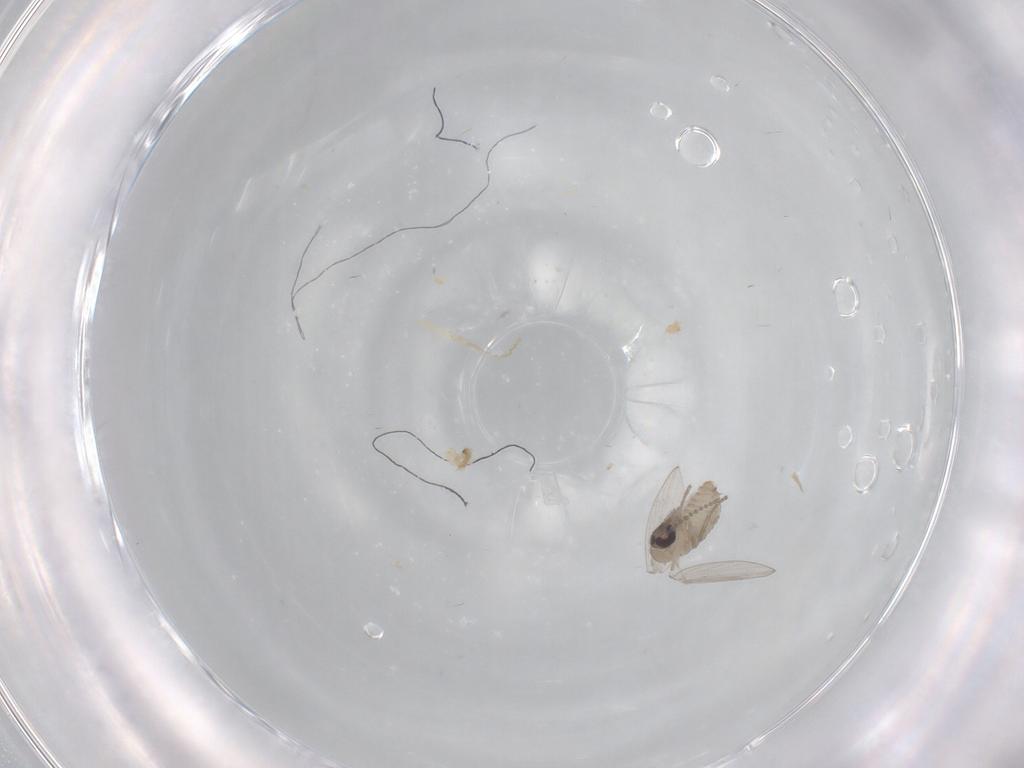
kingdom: Animalia
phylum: Arthropoda
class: Insecta
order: Diptera
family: Psychodidae
